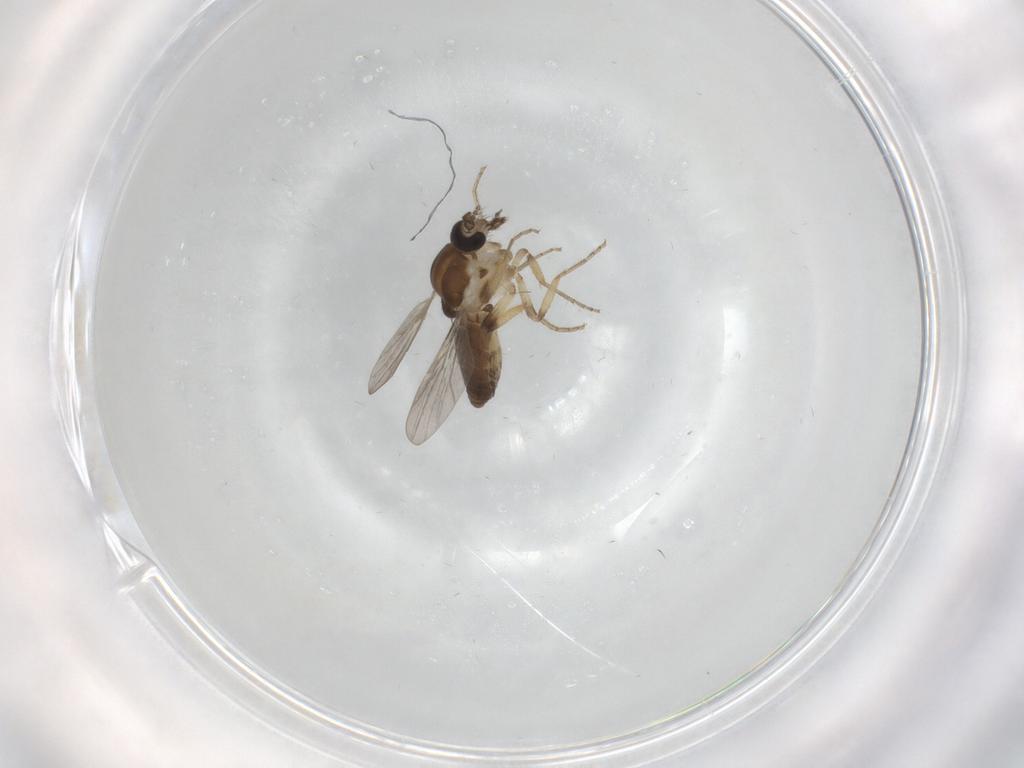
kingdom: Animalia
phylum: Arthropoda
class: Insecta
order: Diptera
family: Ceratopogonidae
